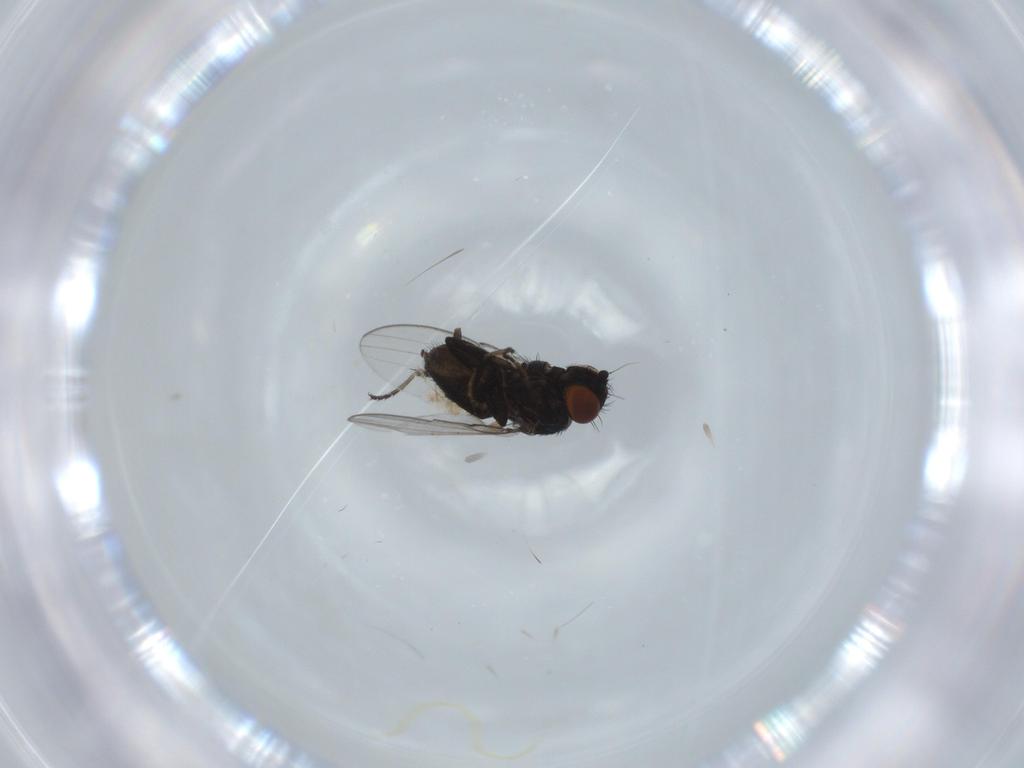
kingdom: Animalia
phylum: Arthropoda
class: Insecta
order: Diptera
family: Milichiidae
